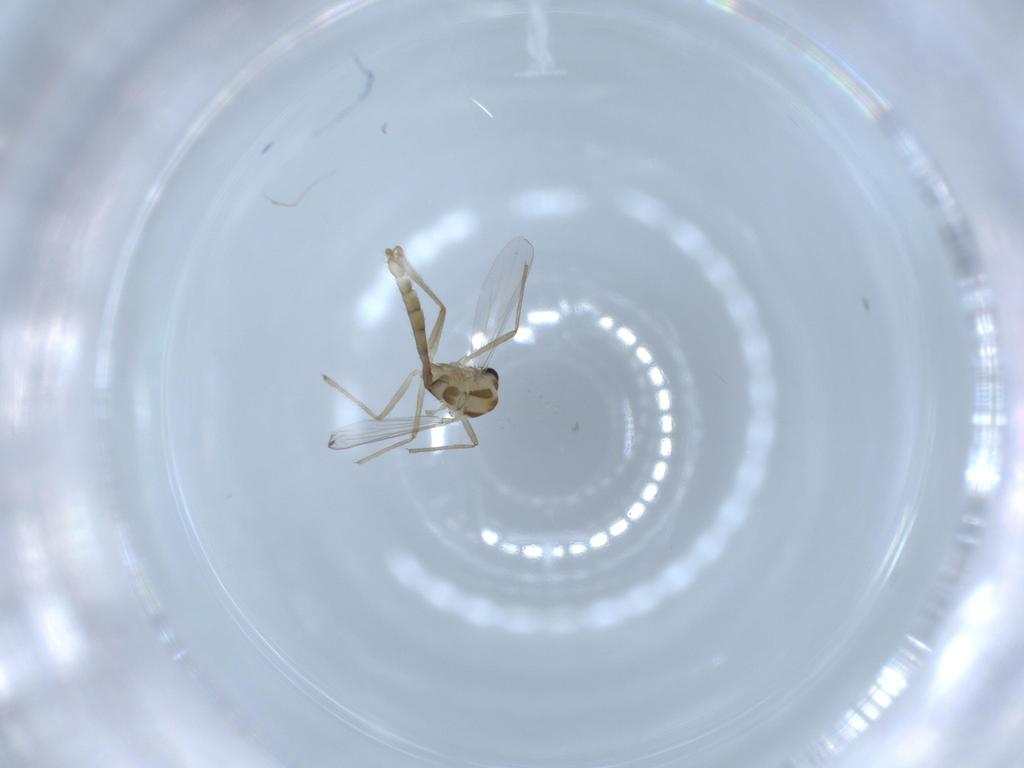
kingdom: Animalia
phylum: Arthropoda
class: Insecta
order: Diptera
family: Chironomidae
